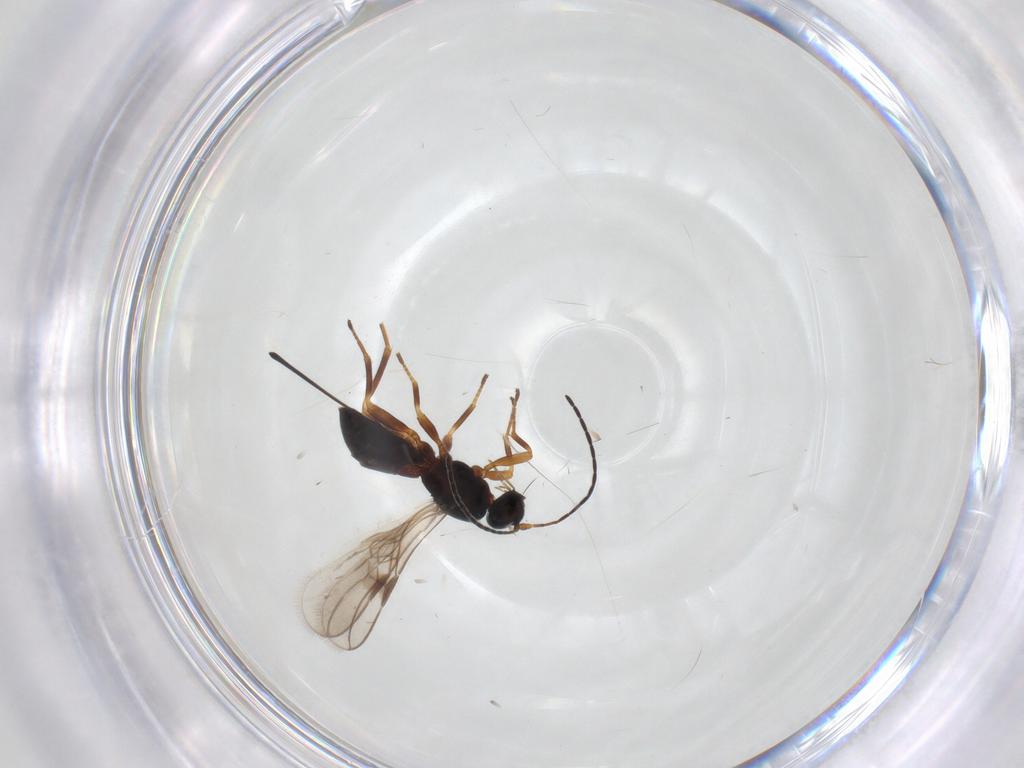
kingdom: Animalia
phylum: Arthropoda
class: Insecta
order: Hymenoptera
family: Braconidae
